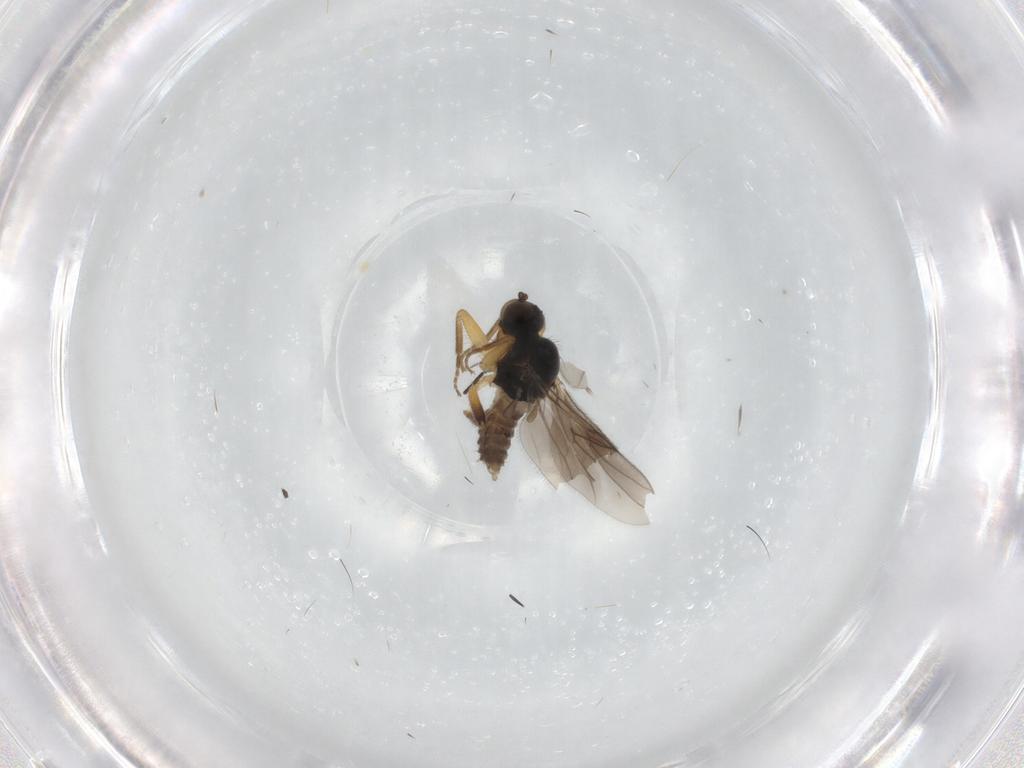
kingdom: Animalia
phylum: Arthropoda
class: Insecta
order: Diptera
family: Hybotidae
